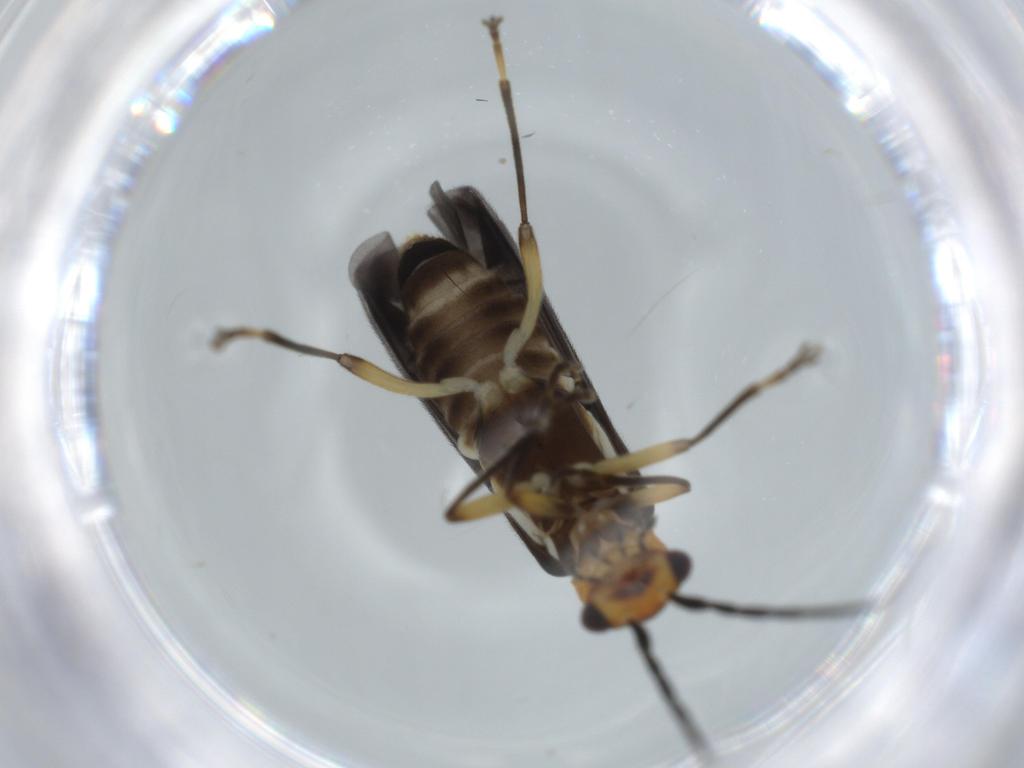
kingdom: Animalia
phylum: Arthropoda
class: Insecta
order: Coleoptera
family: Cantharidae
